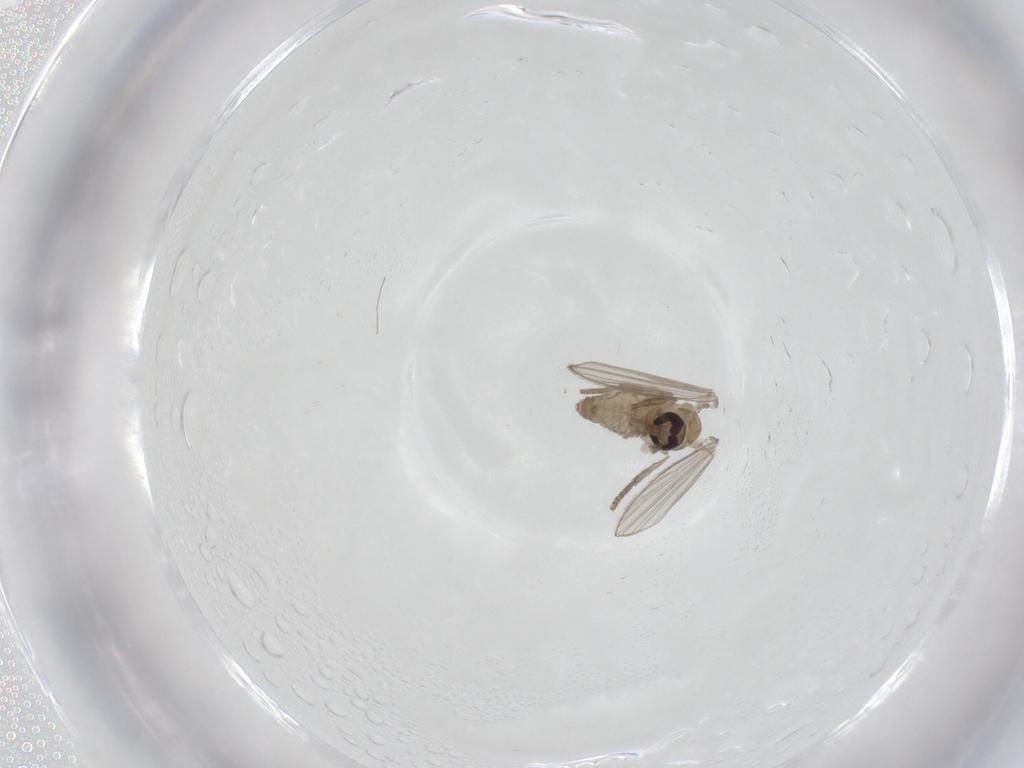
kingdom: Animalia
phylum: Arthropoda
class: Insecta
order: Diptera
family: Psychodidae
